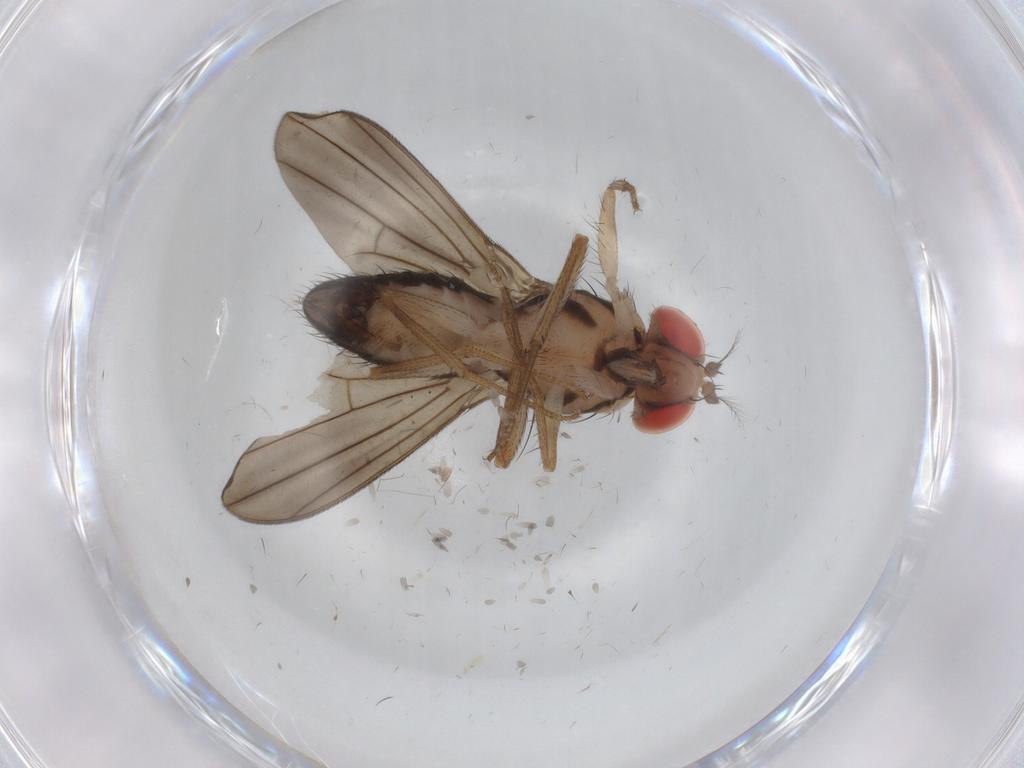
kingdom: Animalia
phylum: Arthropoda
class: Insecta
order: Diptera
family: Drosophilidae
